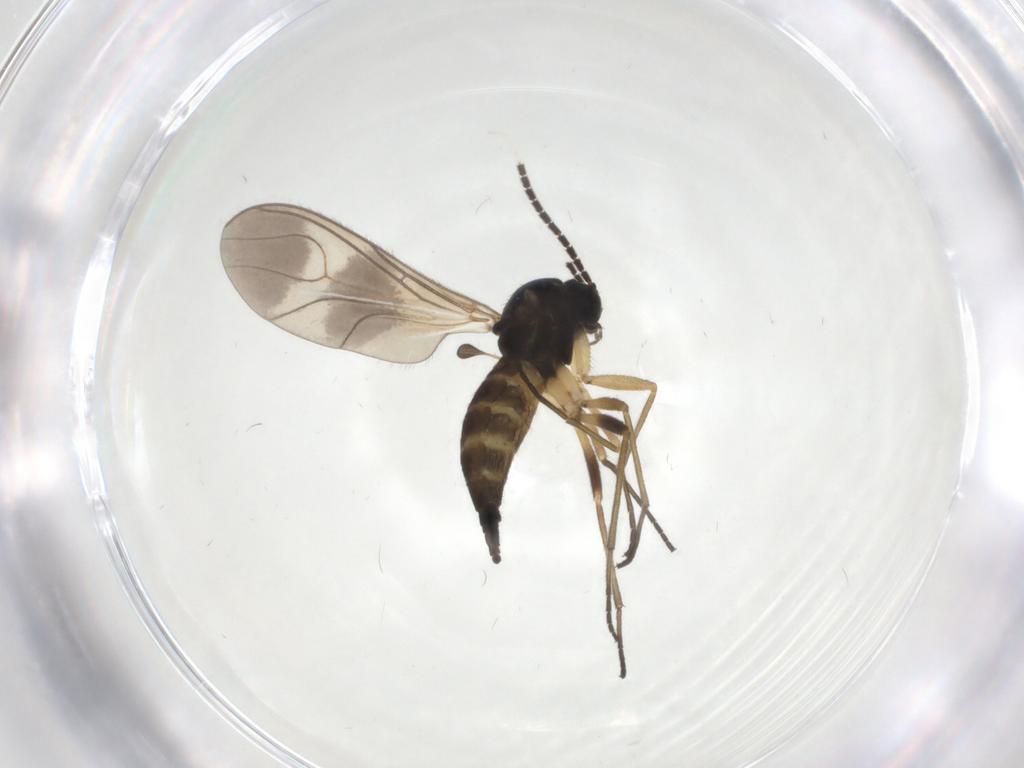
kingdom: Animalia
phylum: Arthropoda
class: Insecta
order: Diptera
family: Sciaridae
